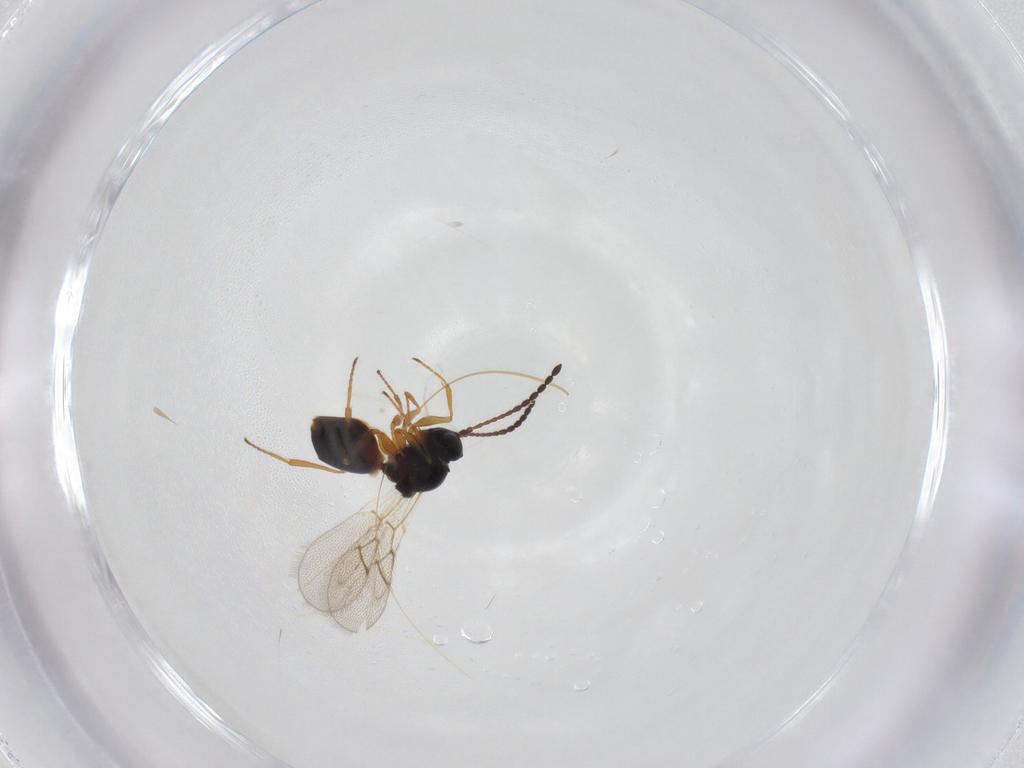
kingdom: Animalia
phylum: Arthropoda
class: Insecta
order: Hymenoptera
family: Figitidae
